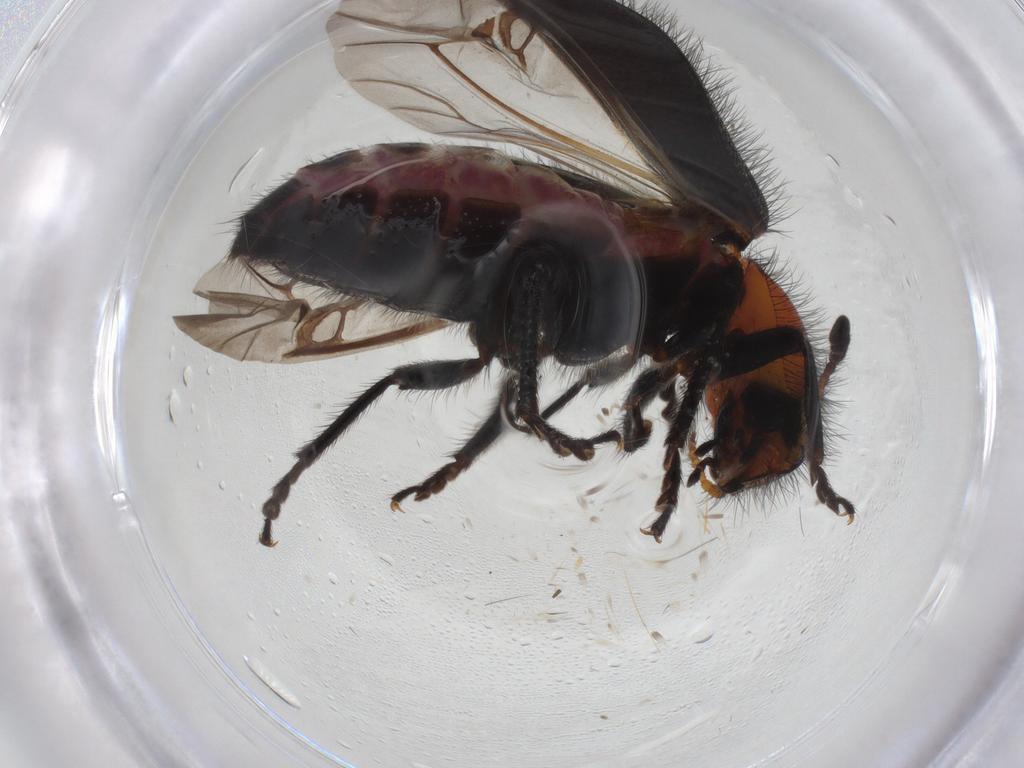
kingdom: Animalia
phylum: Arthropoda
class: Insecta
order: Coleoptera
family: Cleridae
